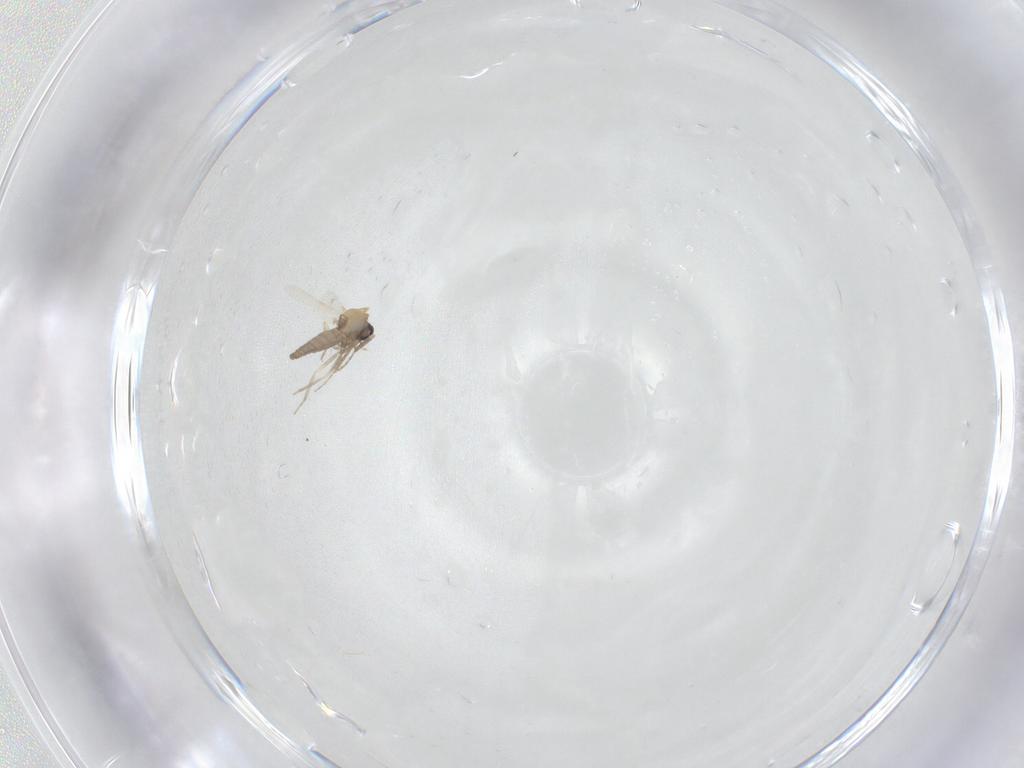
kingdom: Animalia
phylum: Arthropoda
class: Insecta
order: Diptera
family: Ceratopogonidae
